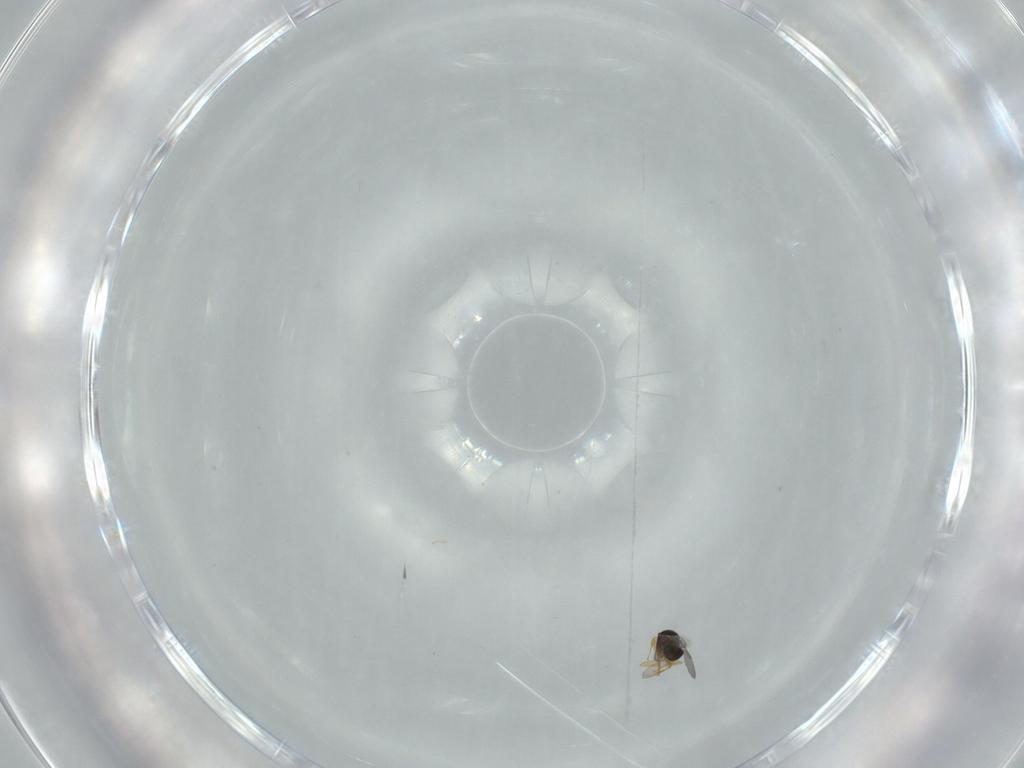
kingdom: Animalia
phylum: Arthropoda
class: Insecta
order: Hymenoptera
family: Scelionidae
